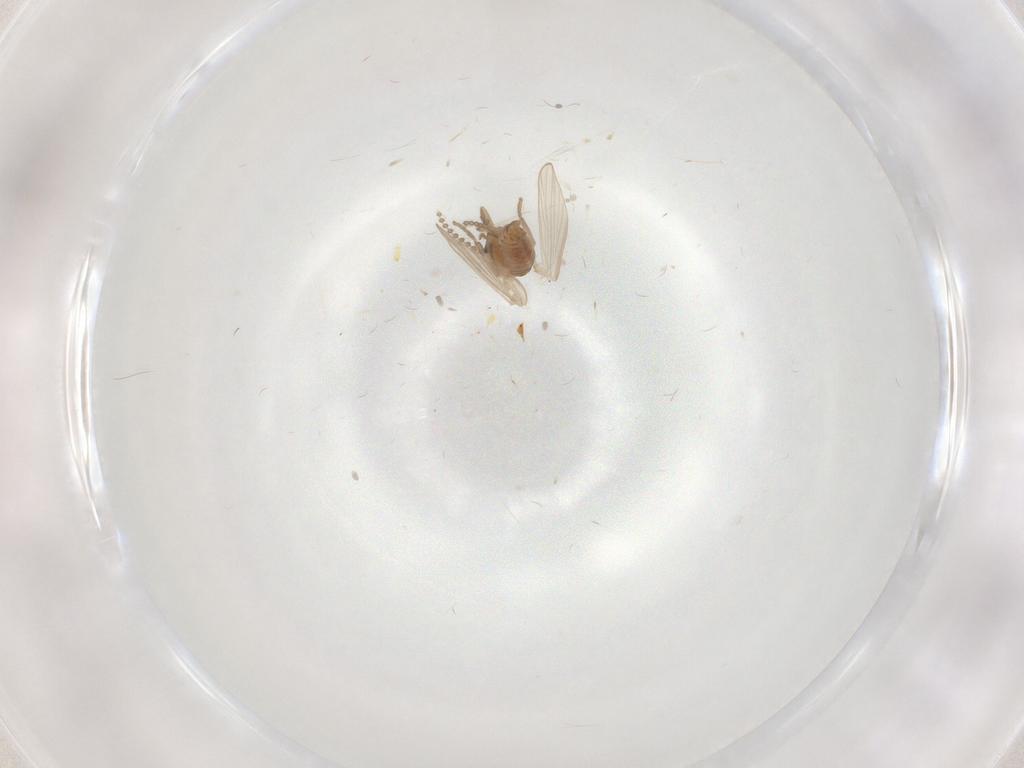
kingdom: Animalia
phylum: Arthropoda
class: Insecta
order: Diptera
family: Psychodidae
